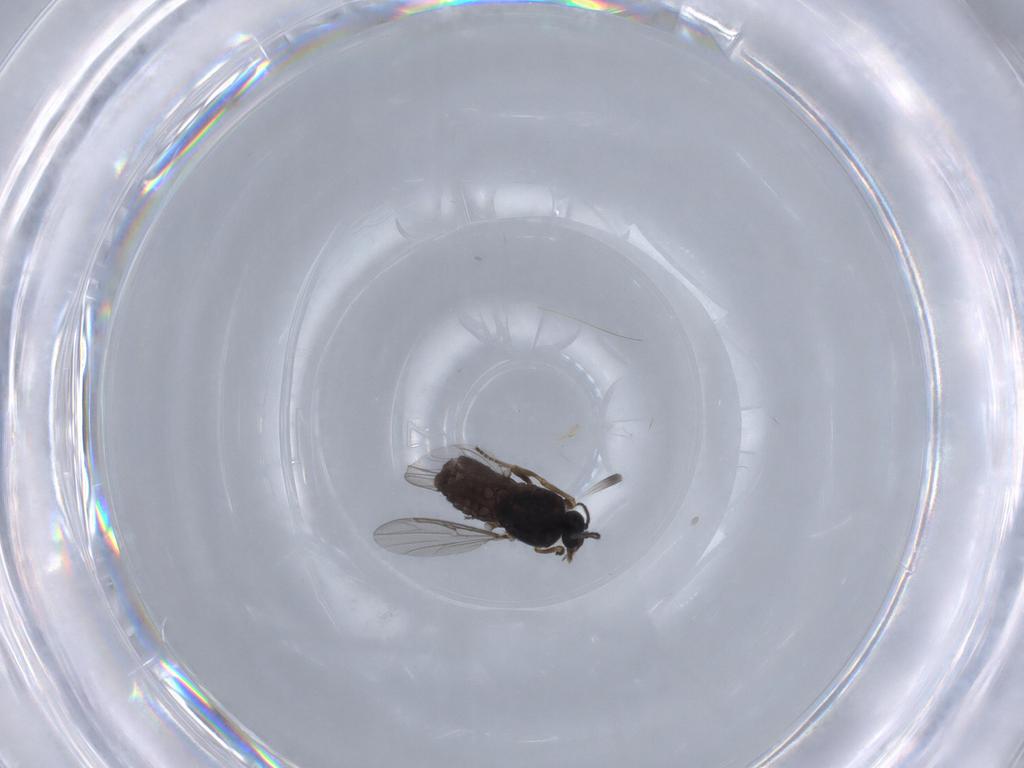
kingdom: Animalia
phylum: Arthropoda
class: Insecta
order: Diptera
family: Ceratopogonidae
